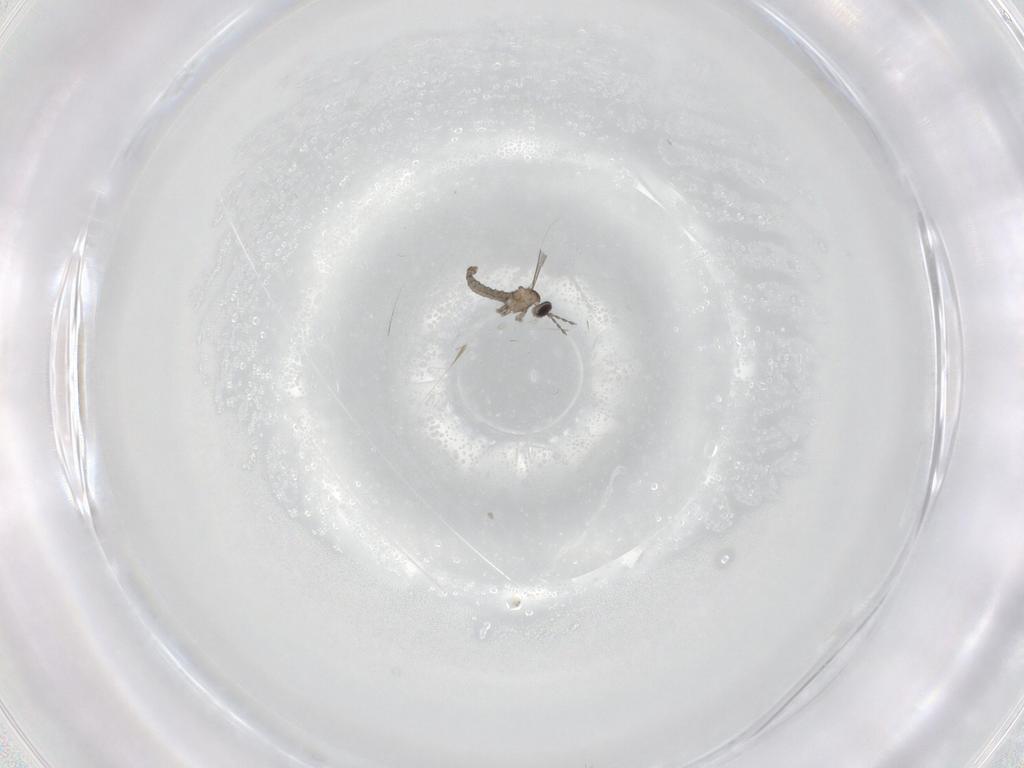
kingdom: Animalia
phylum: Arthropoda
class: Insecta
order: Diptera
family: Cecidomyiidae
